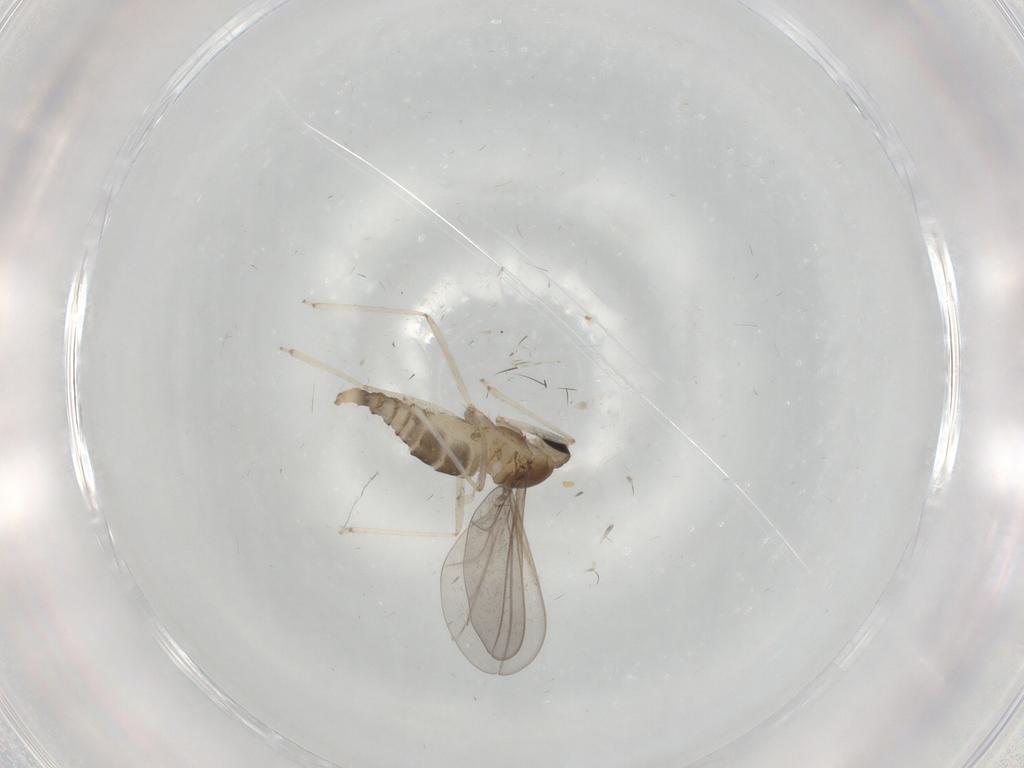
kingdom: Animalia
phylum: Arthropoda
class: Insecta
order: Diptera
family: Cecidomyiidae
